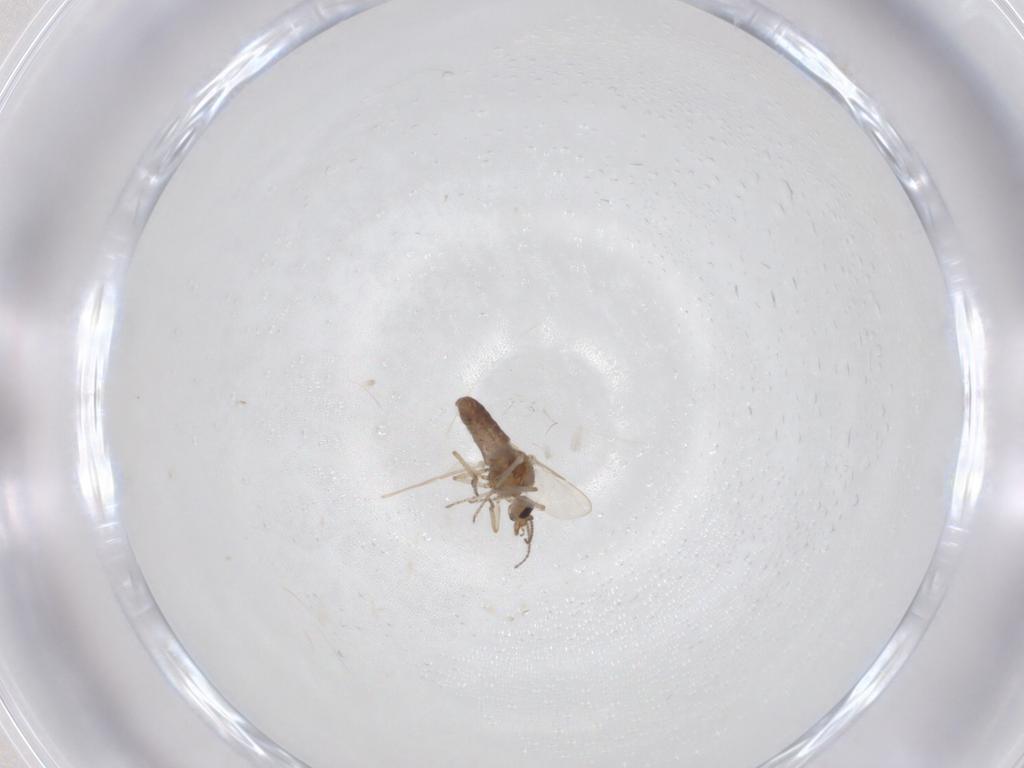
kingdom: Animalia
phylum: Arthropoda
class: Insecta
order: Diptera
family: Ceratopogonidae
